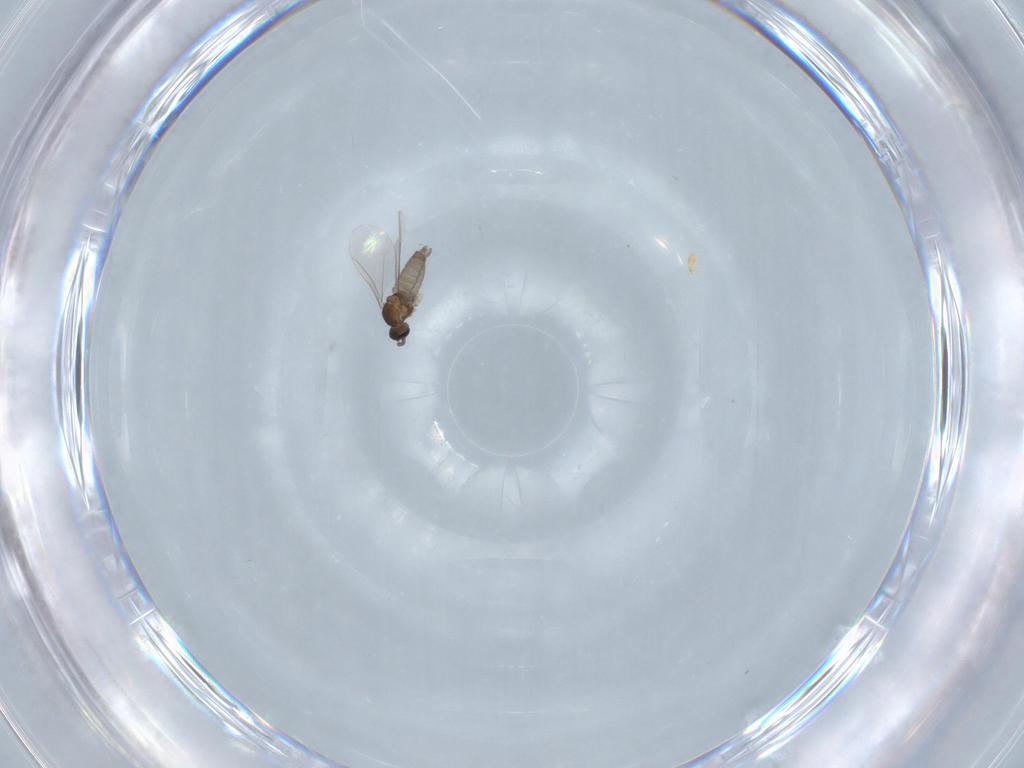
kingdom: Animalia
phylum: Arthropoda
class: Insecta
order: Diptera
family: Cecidomyiidae
